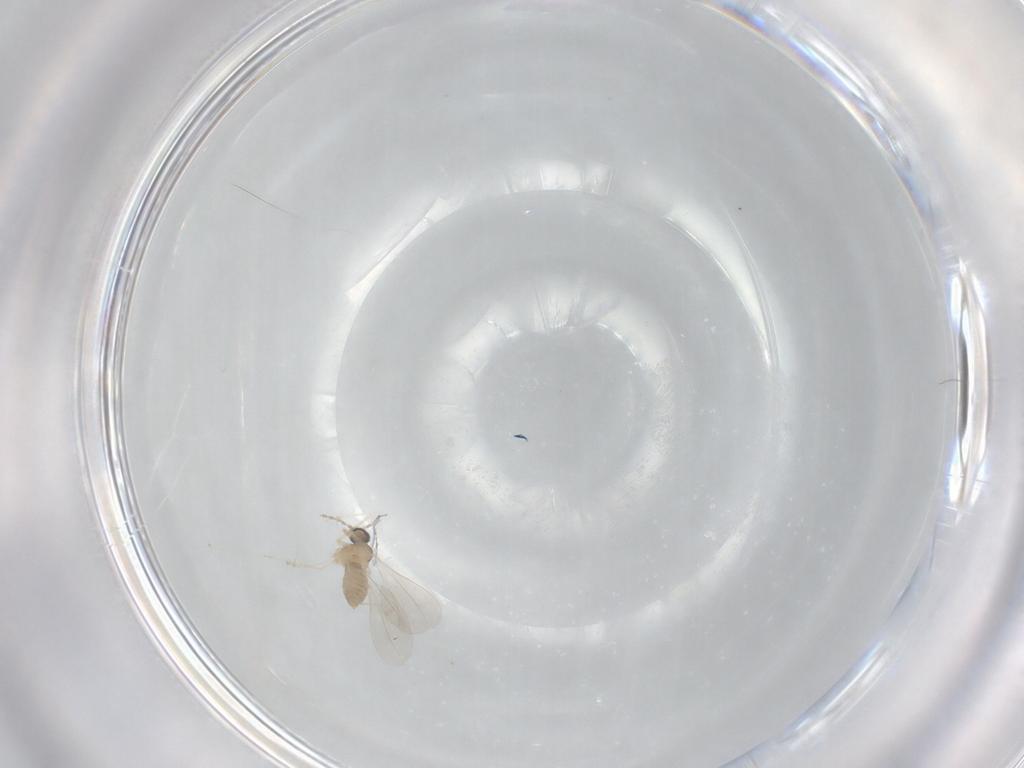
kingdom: Animalia
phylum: Arthropoda
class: Insecta
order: Diptera
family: Cecidomyiidae
